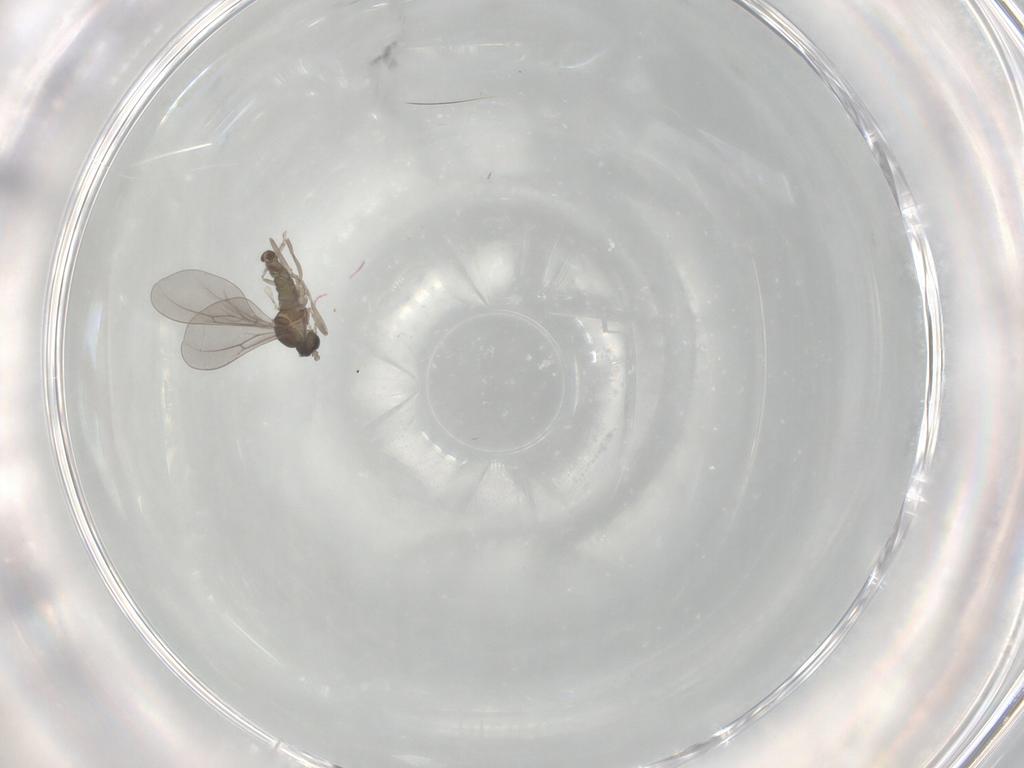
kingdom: Animalia
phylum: Arthropoda
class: Insecta
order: Diptera
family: Cecidomyiidae
